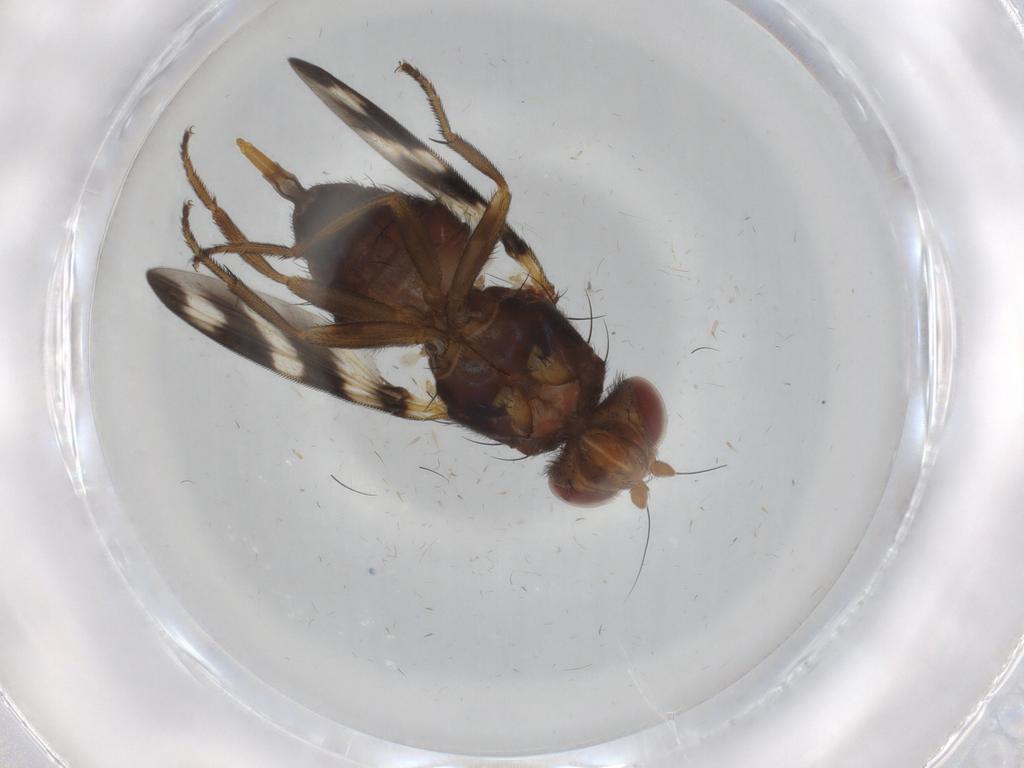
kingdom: Animalia
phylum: Arthropoda
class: Insecta
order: Diptera
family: Ulidiidae
